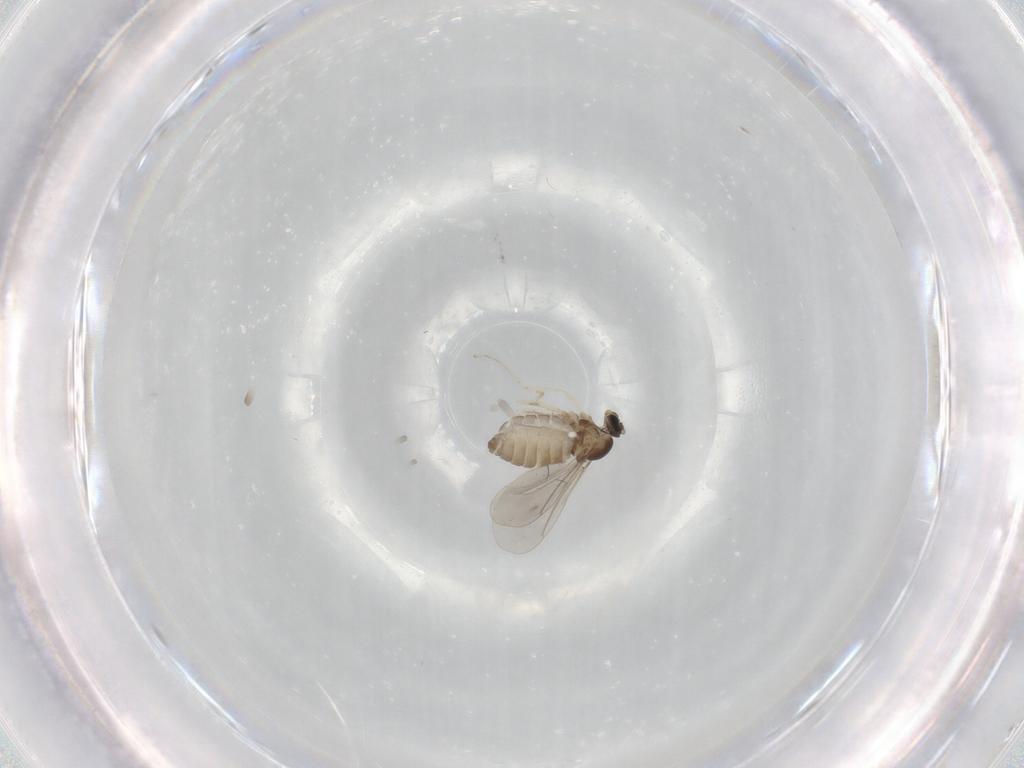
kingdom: Animalia
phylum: Arthropoda
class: Insecta
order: Diptera
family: Cecidomyiidae
